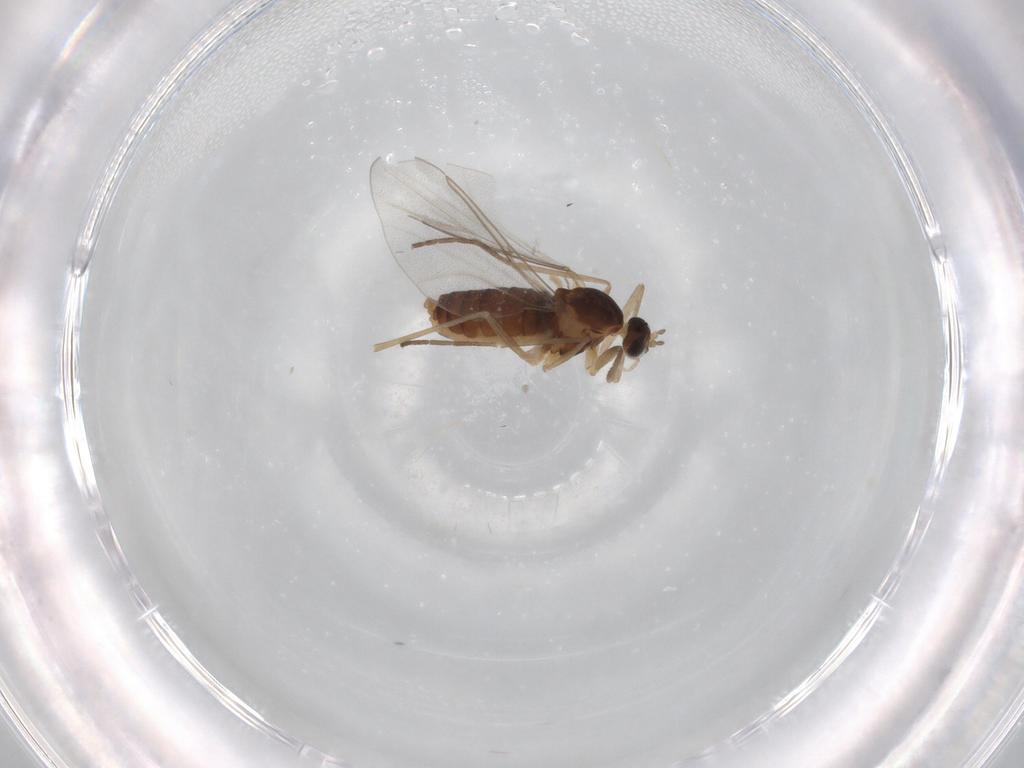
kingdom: Animalia
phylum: Arthropoda
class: Insecta
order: Diptera
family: Cecidomyiidae
